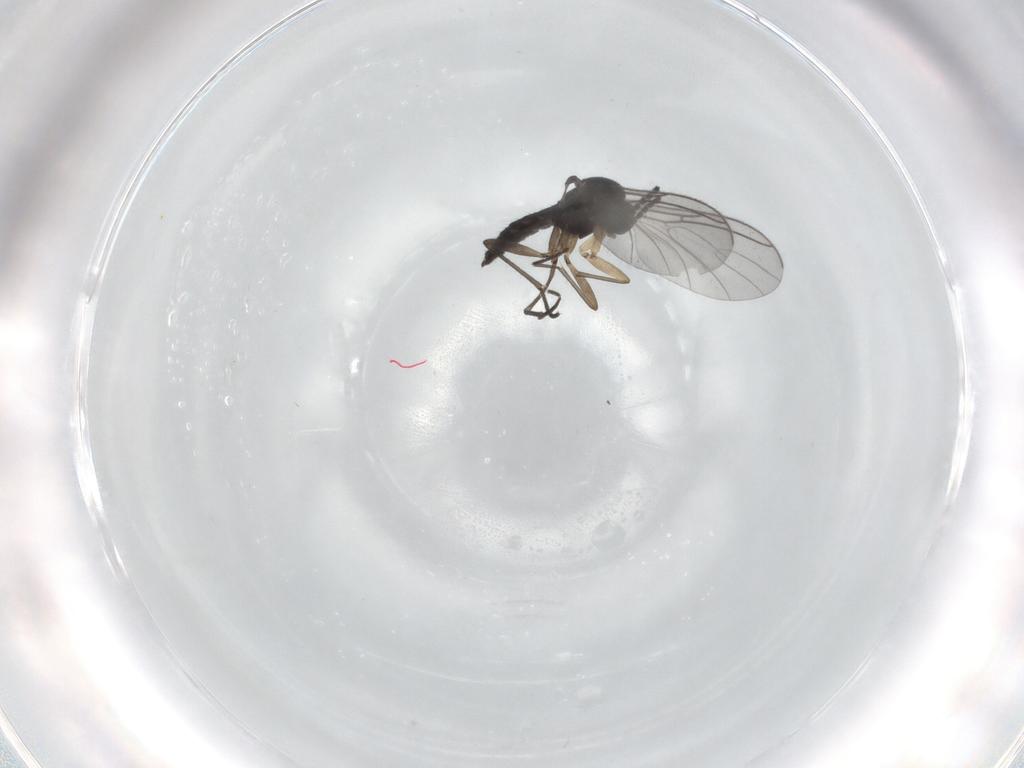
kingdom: Animalia
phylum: Arthropoda
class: Insecta
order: Diptera
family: Sciaridae
